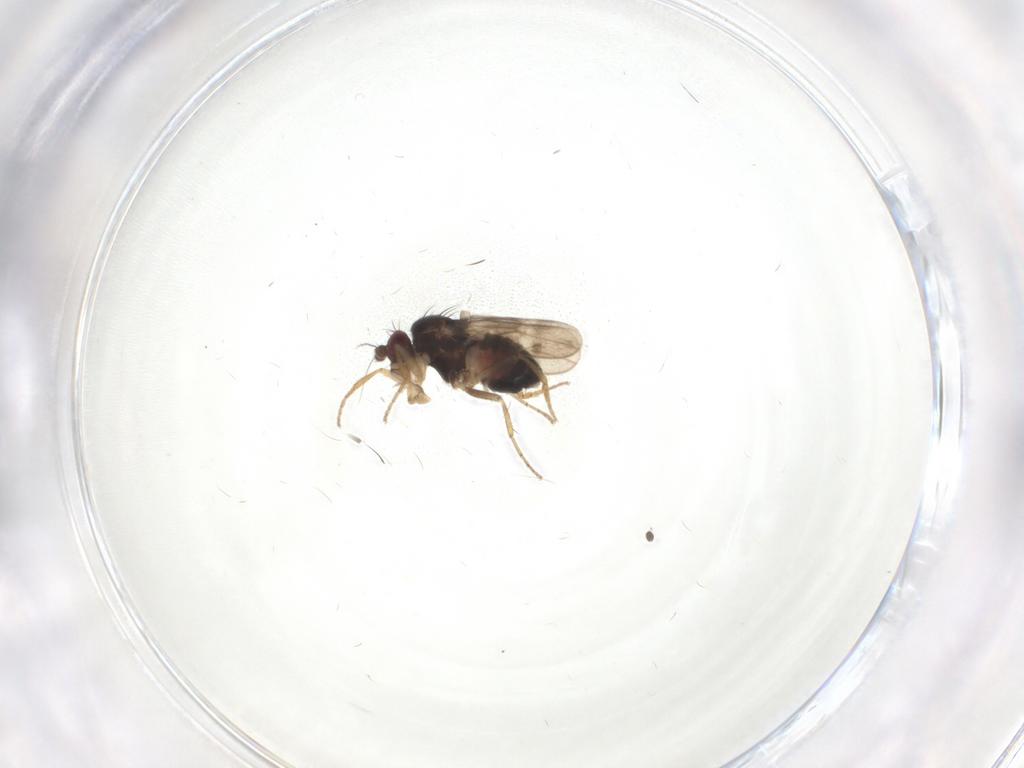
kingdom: Animalia
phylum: Arthropoda
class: Insecta
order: Diptera
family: Sphaeroceridae
